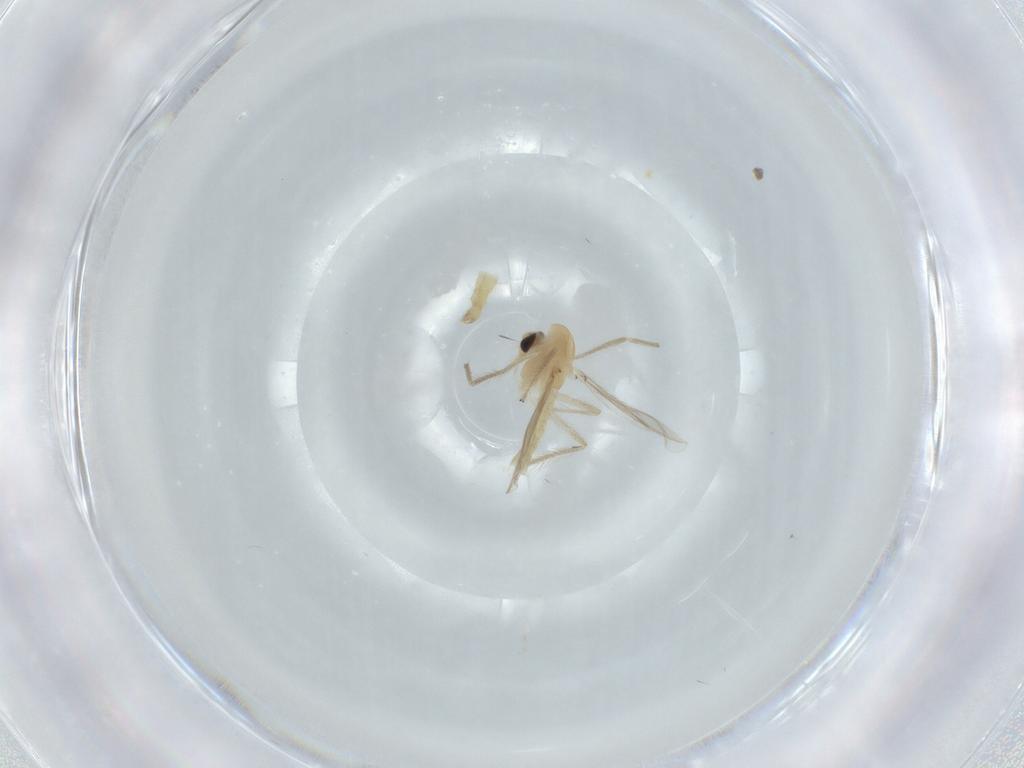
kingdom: Animalia
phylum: Arthropoda
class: Insecta
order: Diptera
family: Chironomidae
